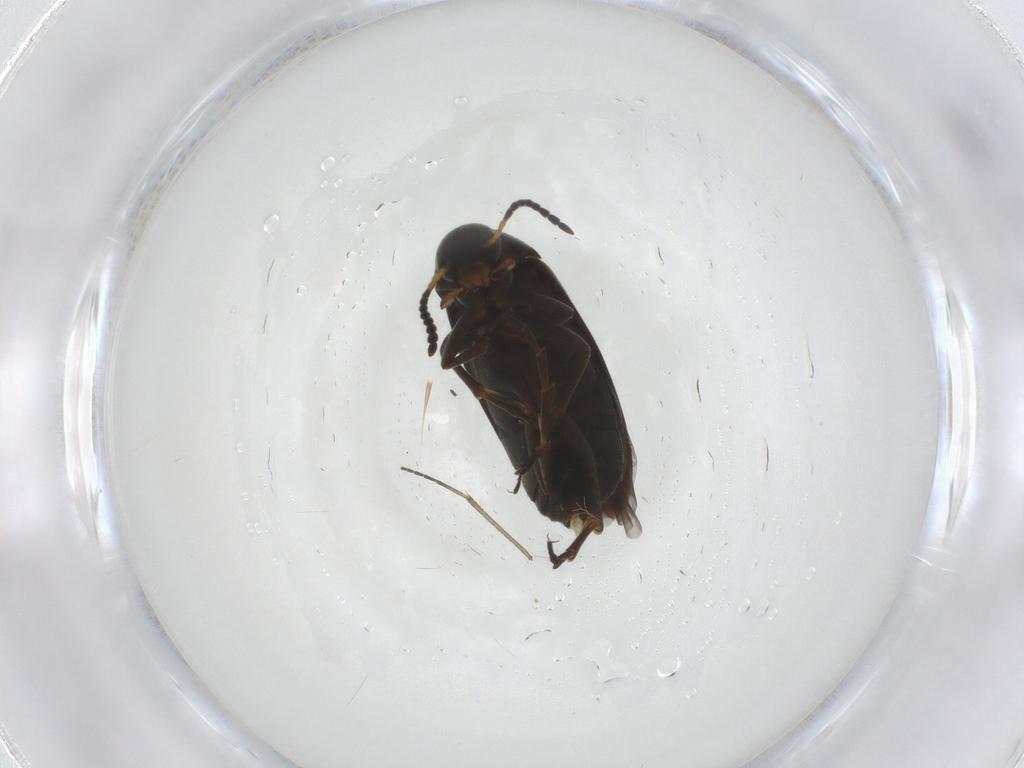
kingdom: Animalia
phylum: Arthropoda
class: Insecta
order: Coleoptera
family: Scraptiidae
